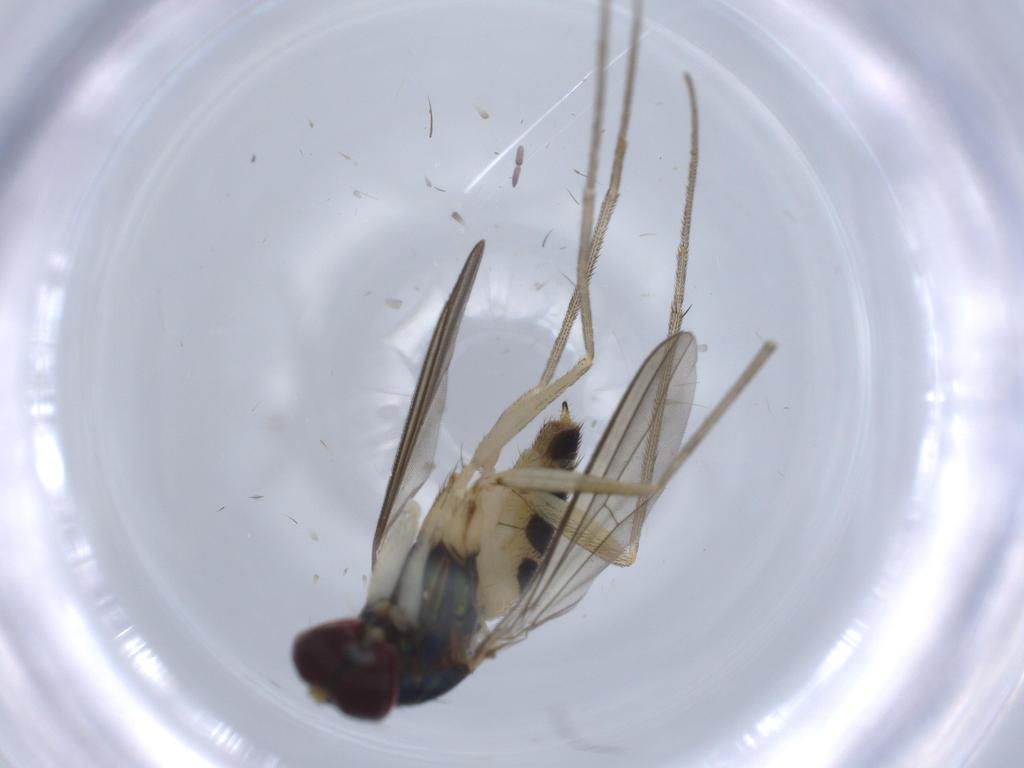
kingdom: Animalia
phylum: Arthropoda
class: Insecta
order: Diptera
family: Dolichopodidae
